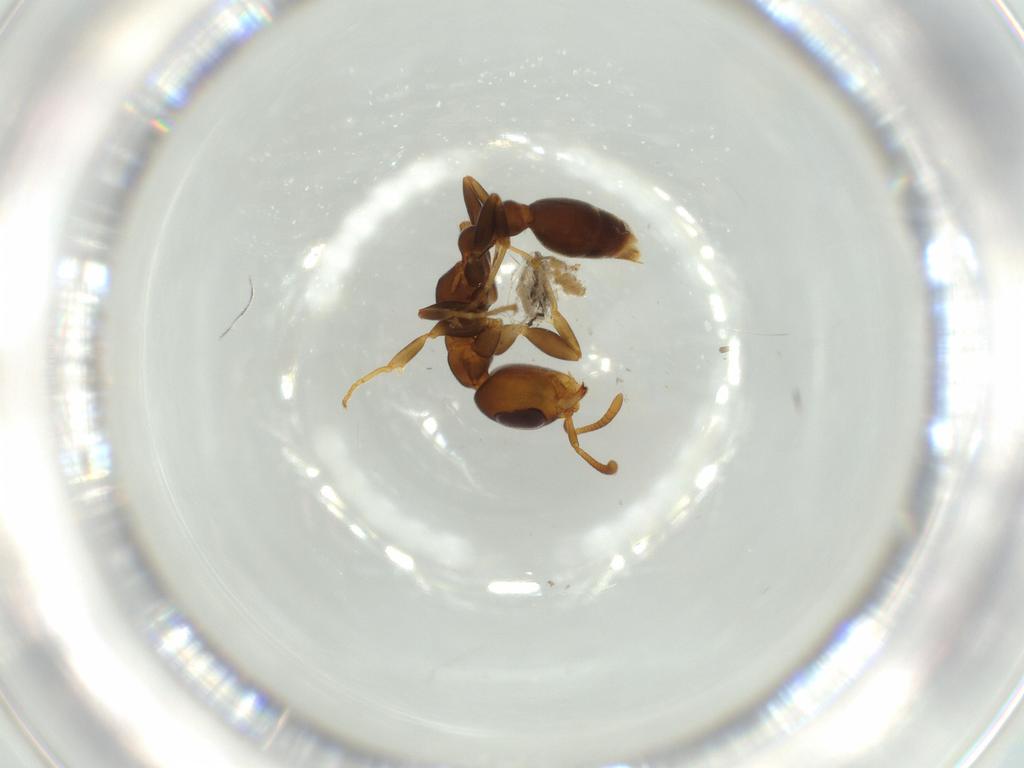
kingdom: Animalia
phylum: Arthropoda
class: Insecta
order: Hymenoptera
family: Formicidae
